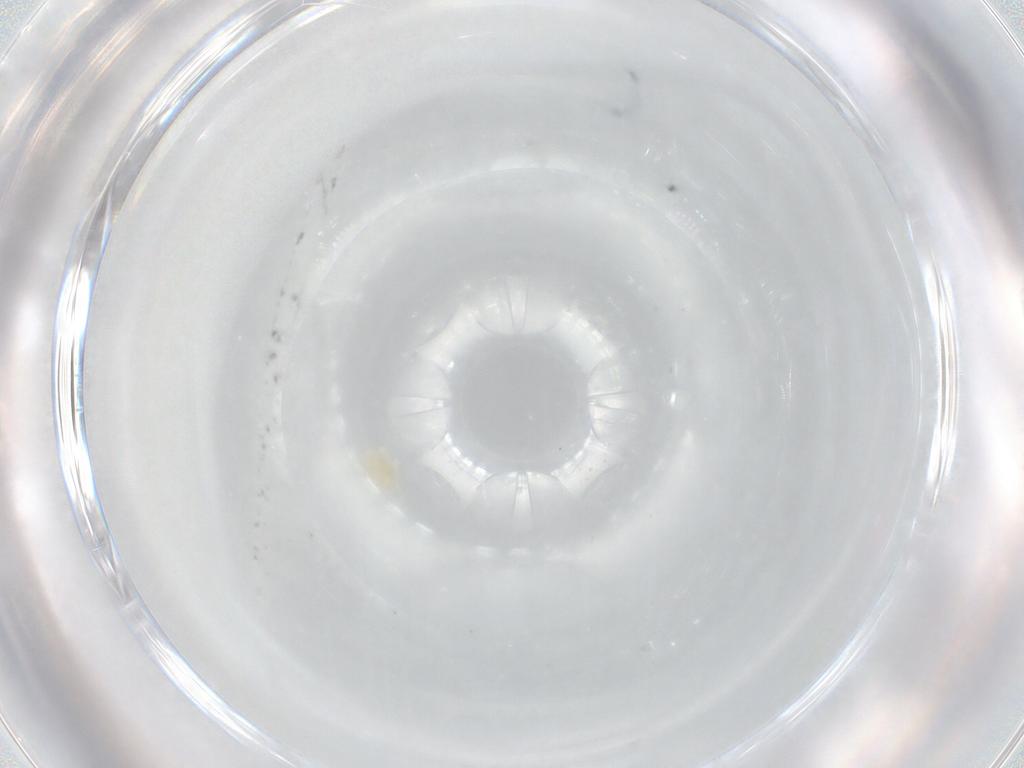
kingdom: Animalia
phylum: Arthropoda
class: Arachnida
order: Trombidiformes
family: Eupodidae
